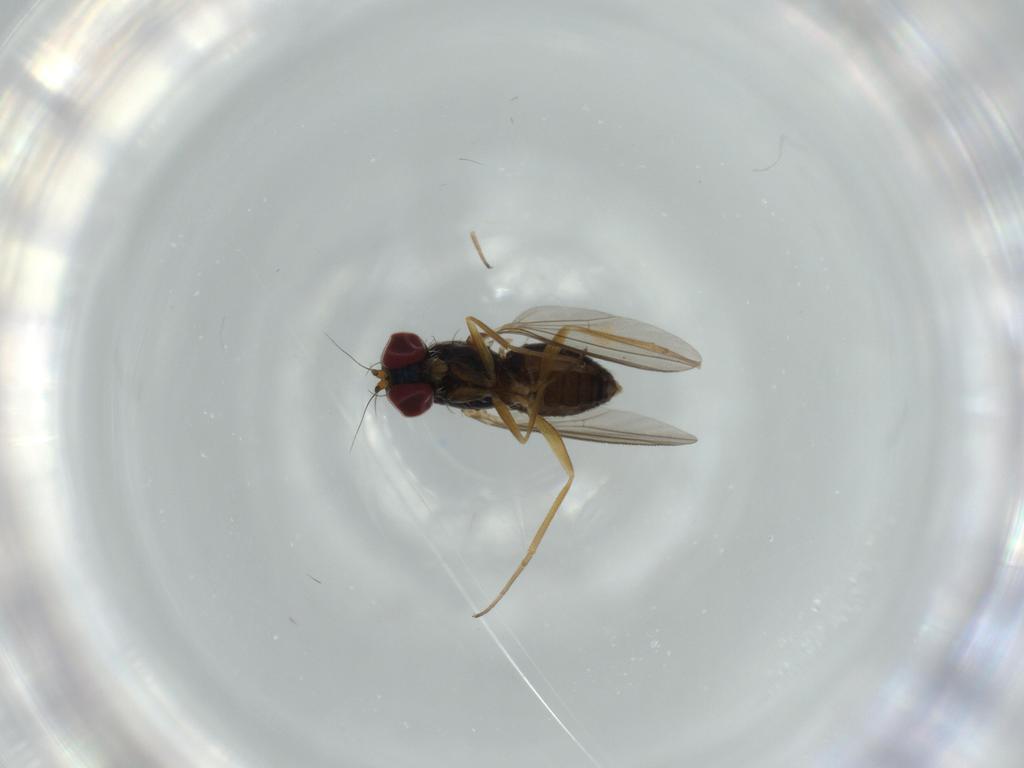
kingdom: Animalia
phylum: Arthropoda
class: Insecta
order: Diptera
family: Dolichopodidae
